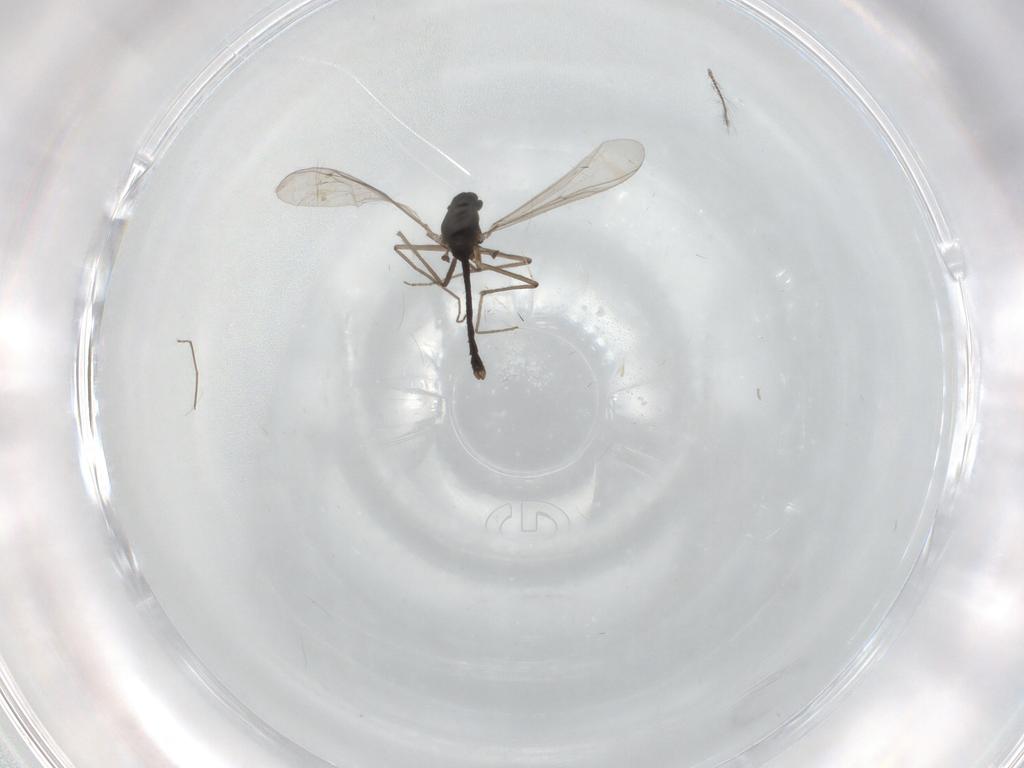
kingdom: Animalia
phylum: Arthropoda
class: Insecta
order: Diptera
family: Chironomidae
